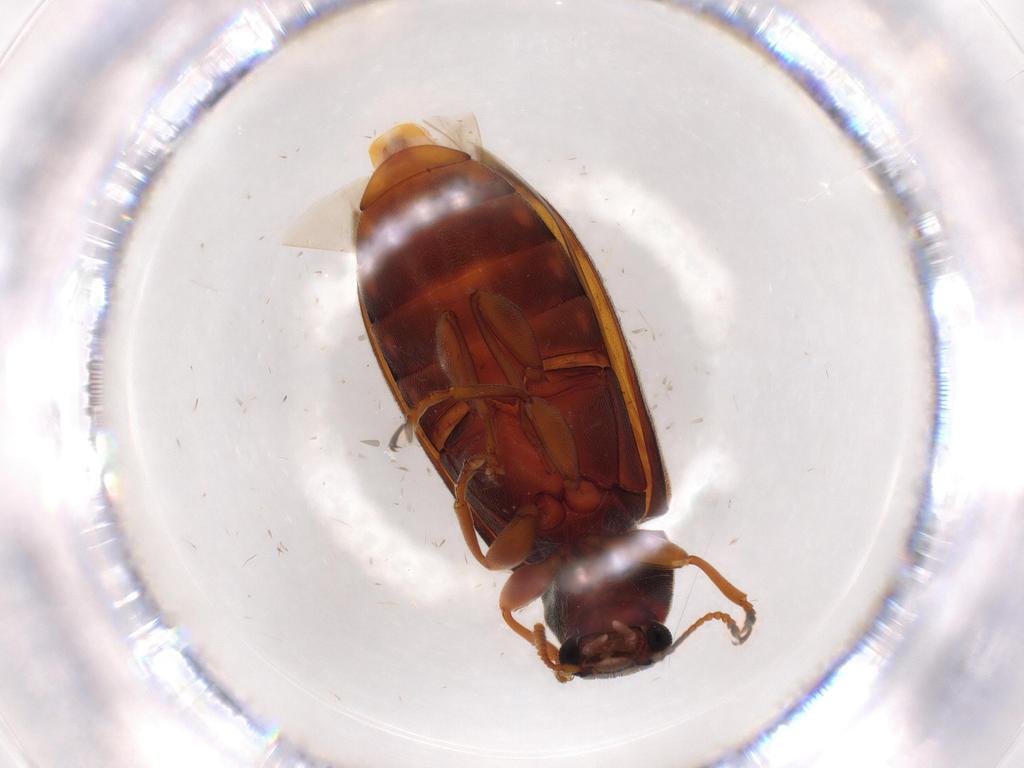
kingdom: Animalia
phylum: Arthropoda
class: Insecta
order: Coleoptera
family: Mycteridae
